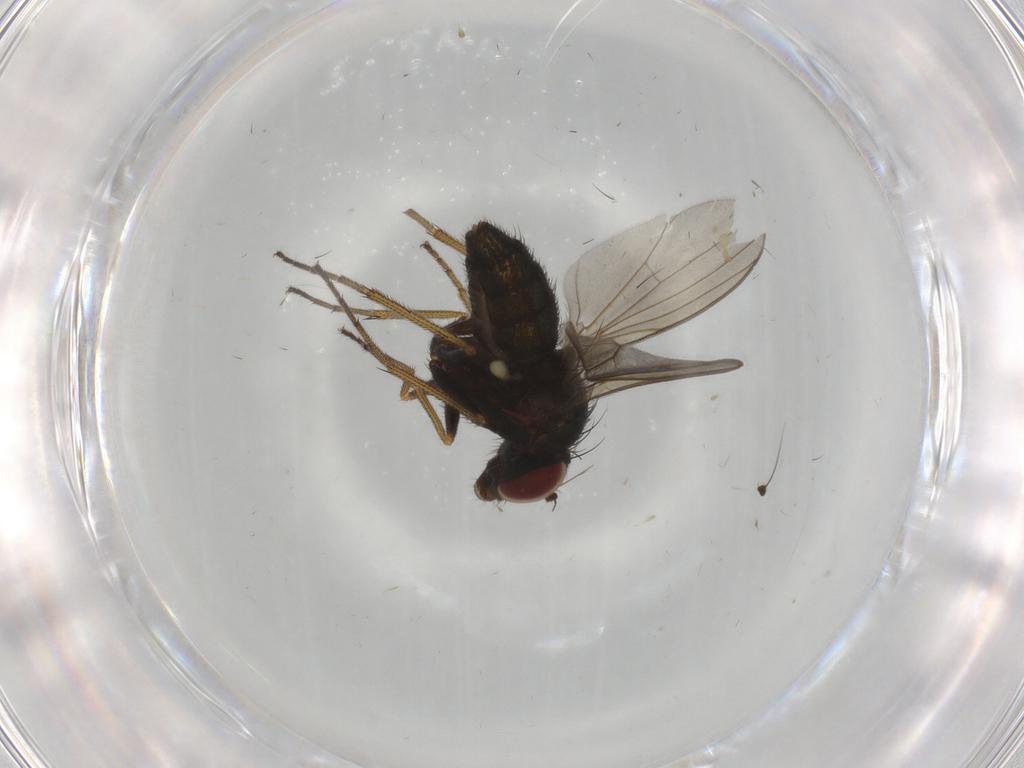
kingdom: Animalia
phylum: Arthropoda
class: Insecta
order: Diptera
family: Dolichopodidae
